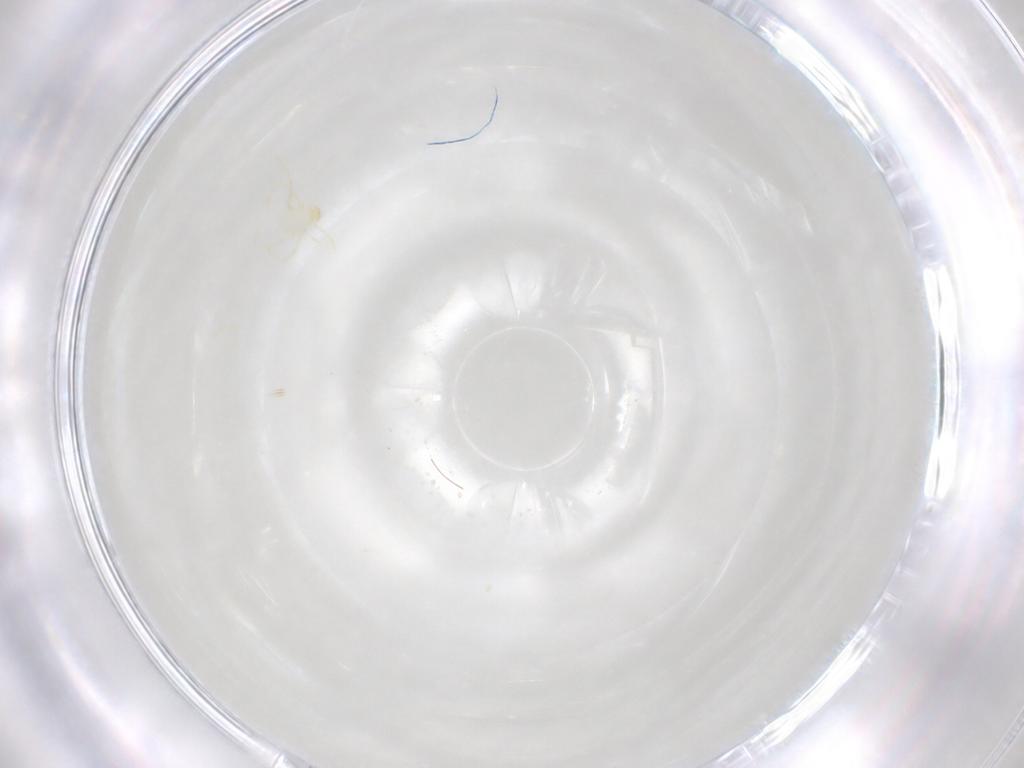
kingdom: Animalia
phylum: Arthropoda
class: Arachnida
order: Trombidiformes
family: Erythraeidae
